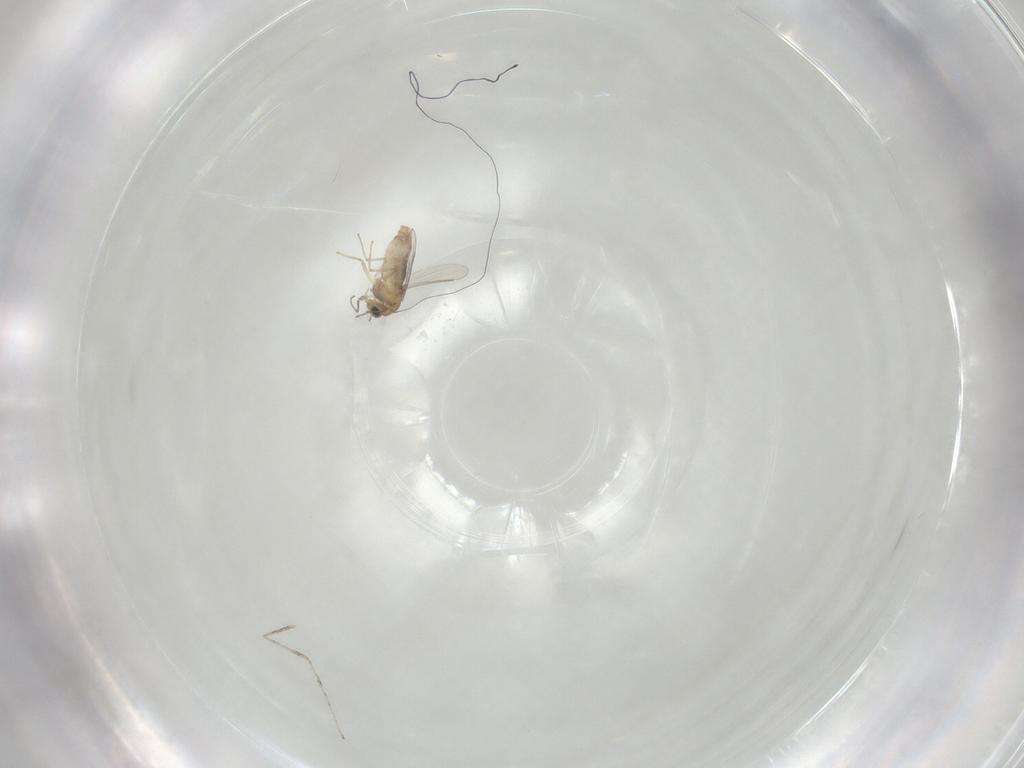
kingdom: Animalia
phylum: Arthropoda
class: Insecta
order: Diptera
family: Chironomidae
